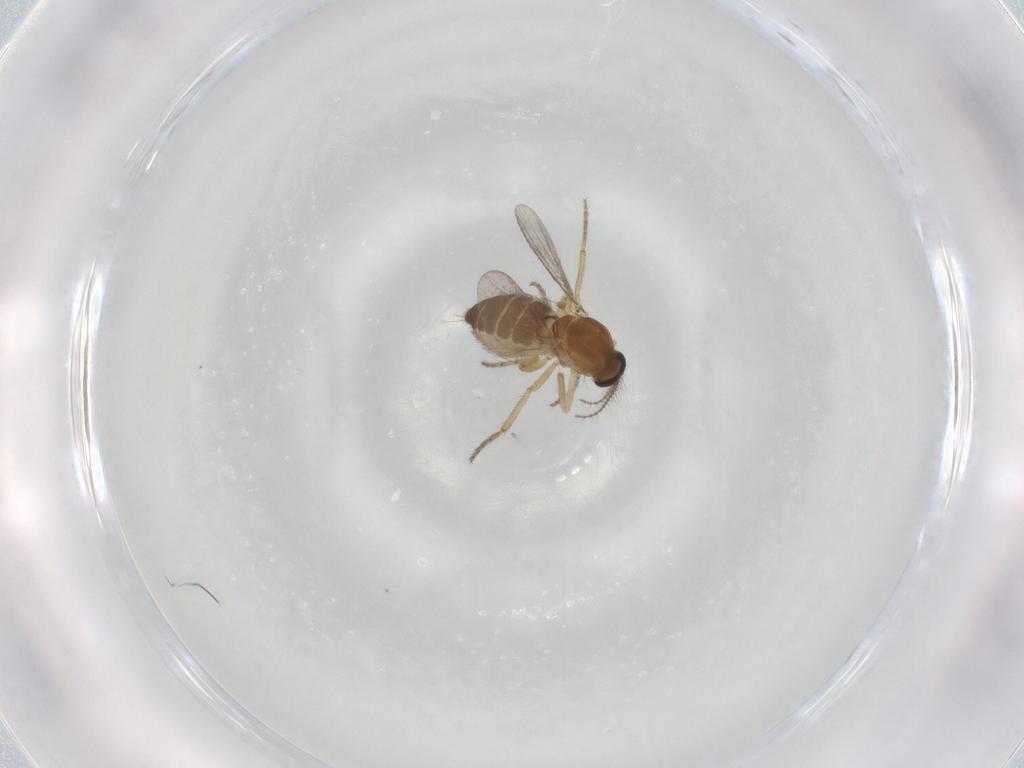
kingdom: Animalia
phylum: Arthropoda
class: Insecta
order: Diptera
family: Ceratopogonidae
